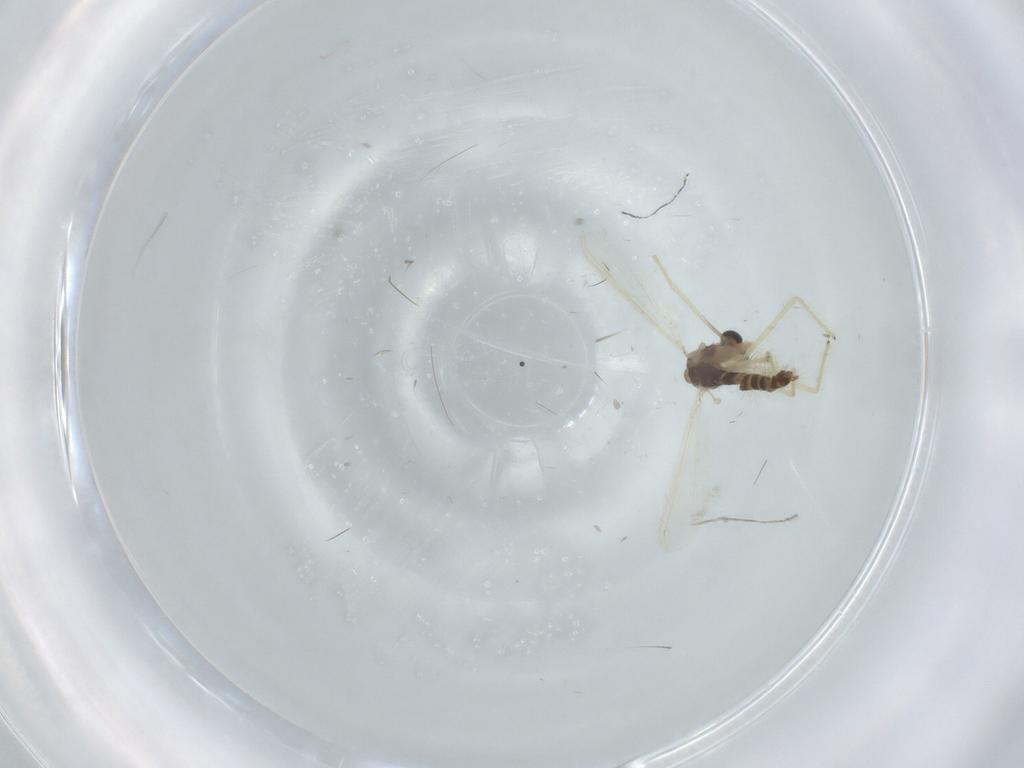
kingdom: Animalia
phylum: Arthropoda
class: Insecta
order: Diptera
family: Chironomidae
